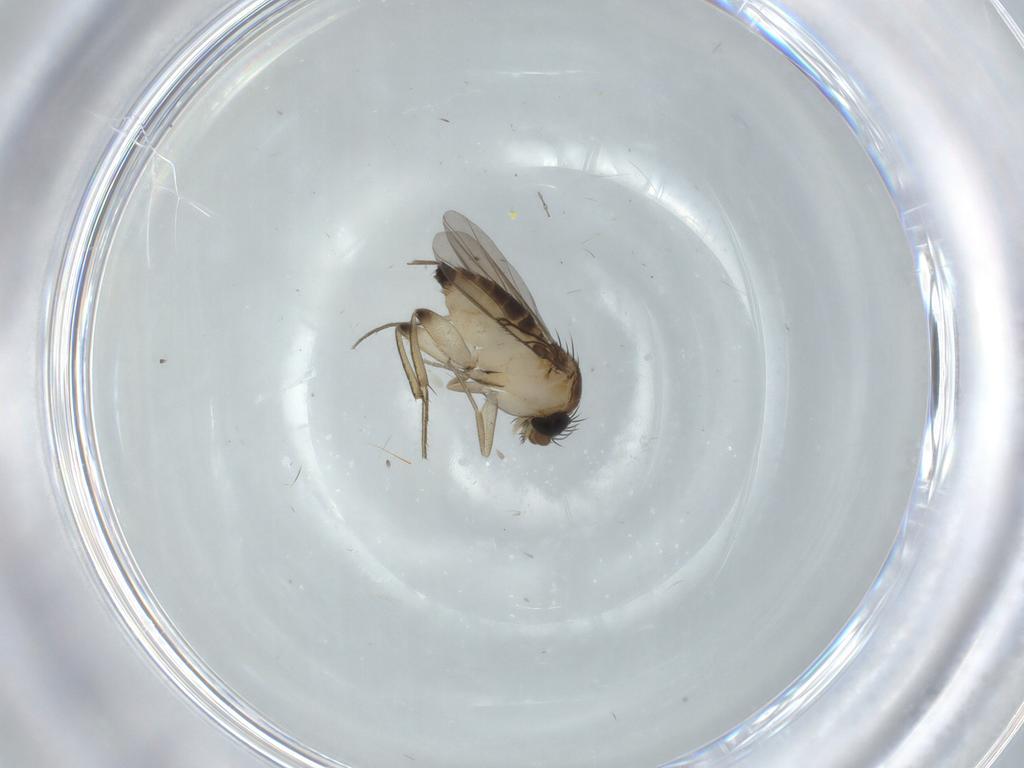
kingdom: Animalia
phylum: Arthropoda
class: Insecta
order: Diptera
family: Phoridae
